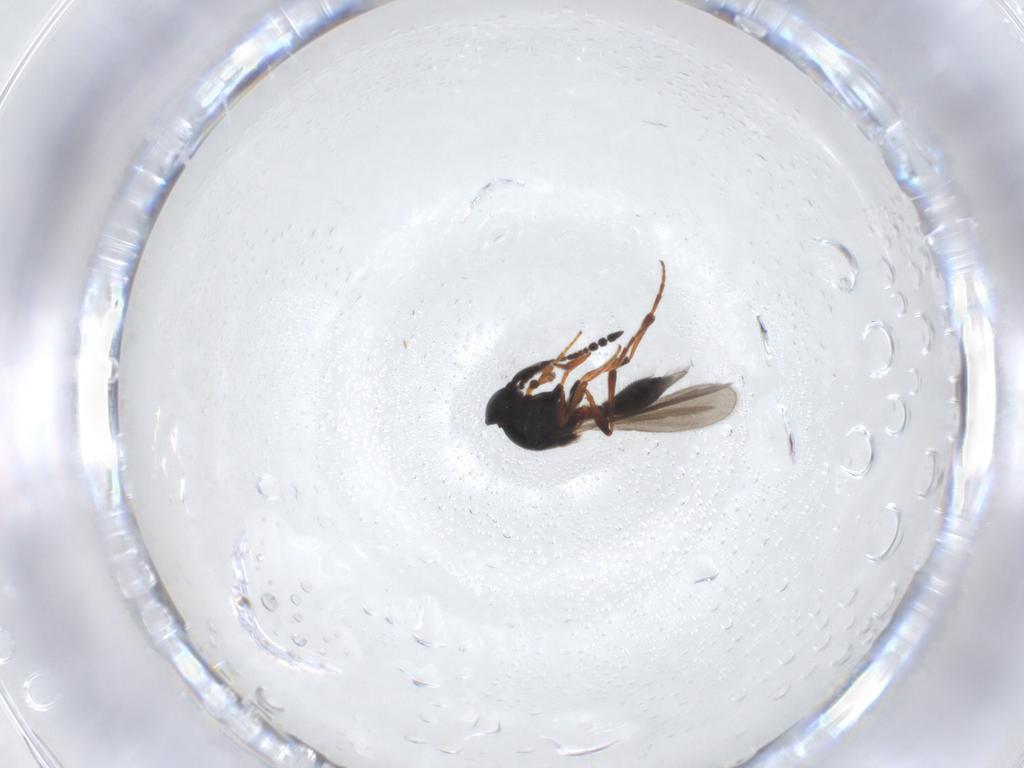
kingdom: Animalia
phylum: Arthropoda
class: Insecta
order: Hymenoptera
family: Platygastridae
